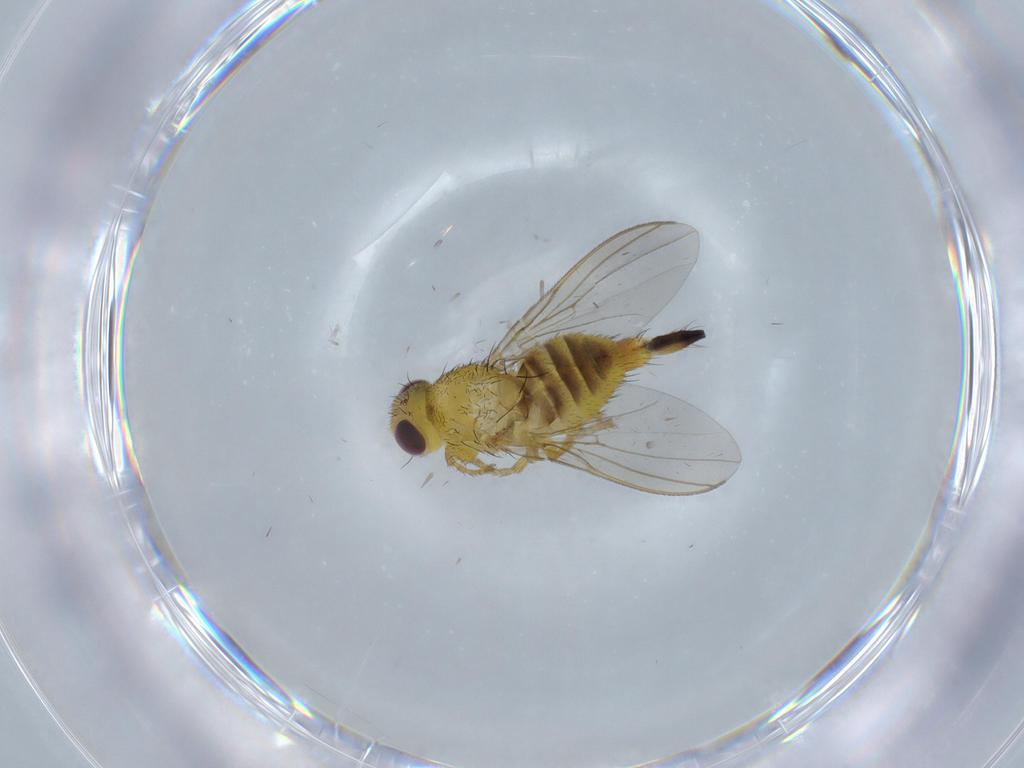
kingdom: Animalia
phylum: Arthropoda
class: Insecta
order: Diptera
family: Fergusoninidae
